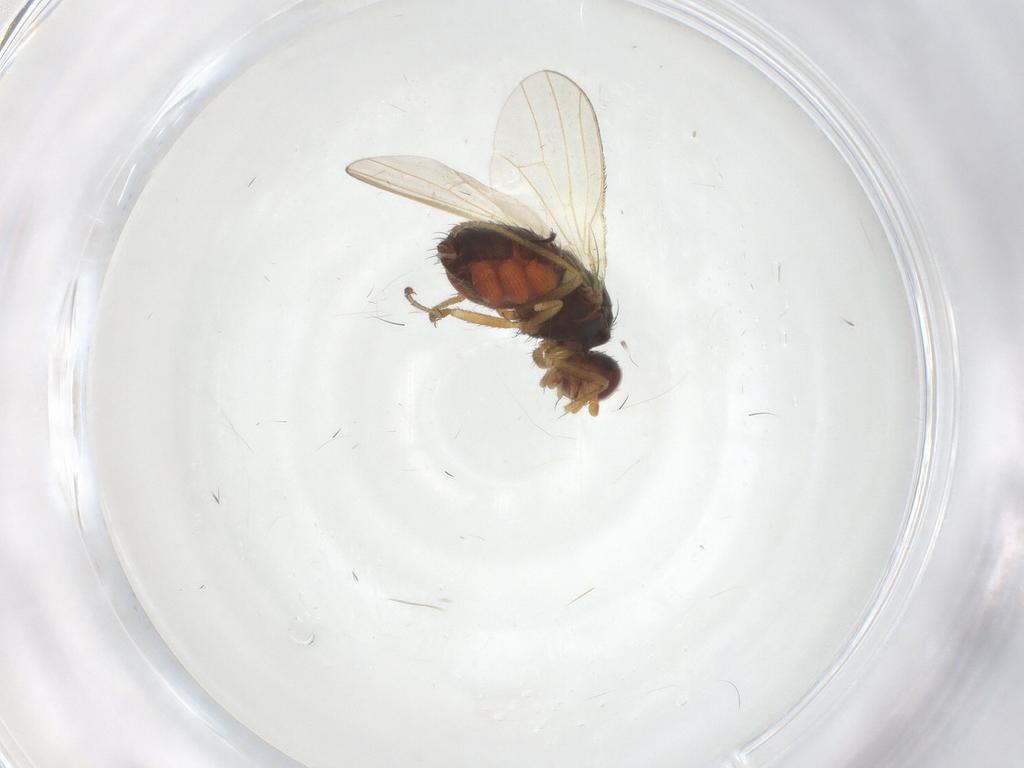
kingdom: Animalia
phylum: Arthropoda
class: Insecta
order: Diptera
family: Heleomyzidae
